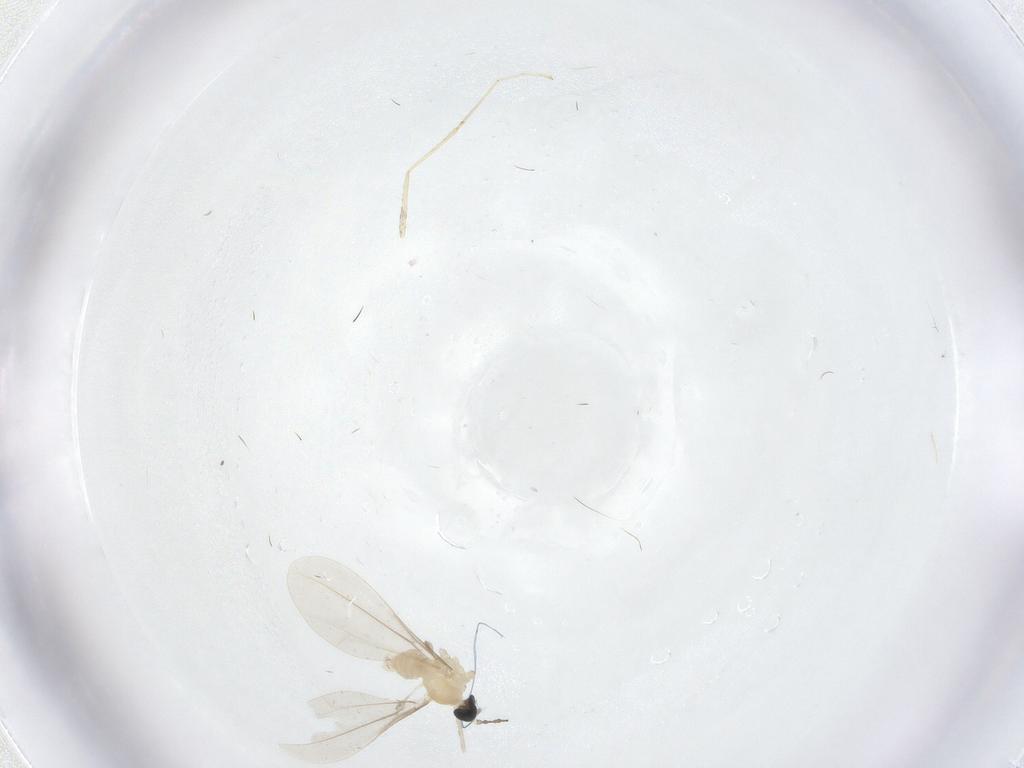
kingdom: Animalia
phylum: Arthropoda
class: Insecta
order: Diptera
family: Cecidomyiidae
